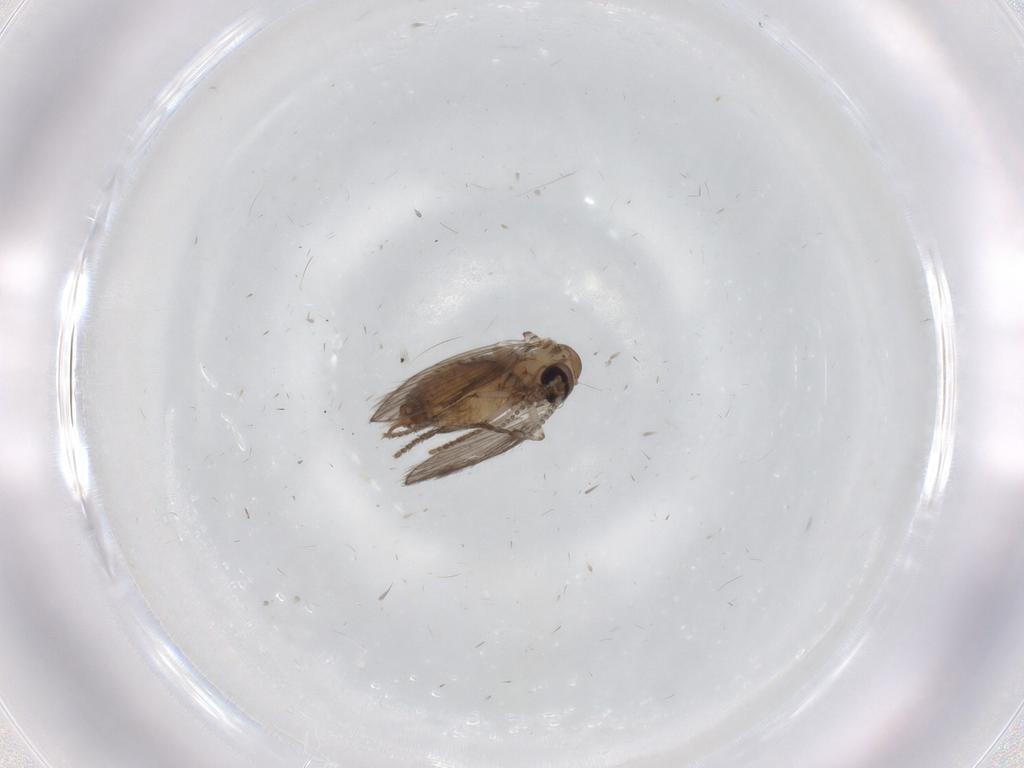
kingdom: Animalia
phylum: Arthropoda
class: Insecta
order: Diptera
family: Psychodidae
